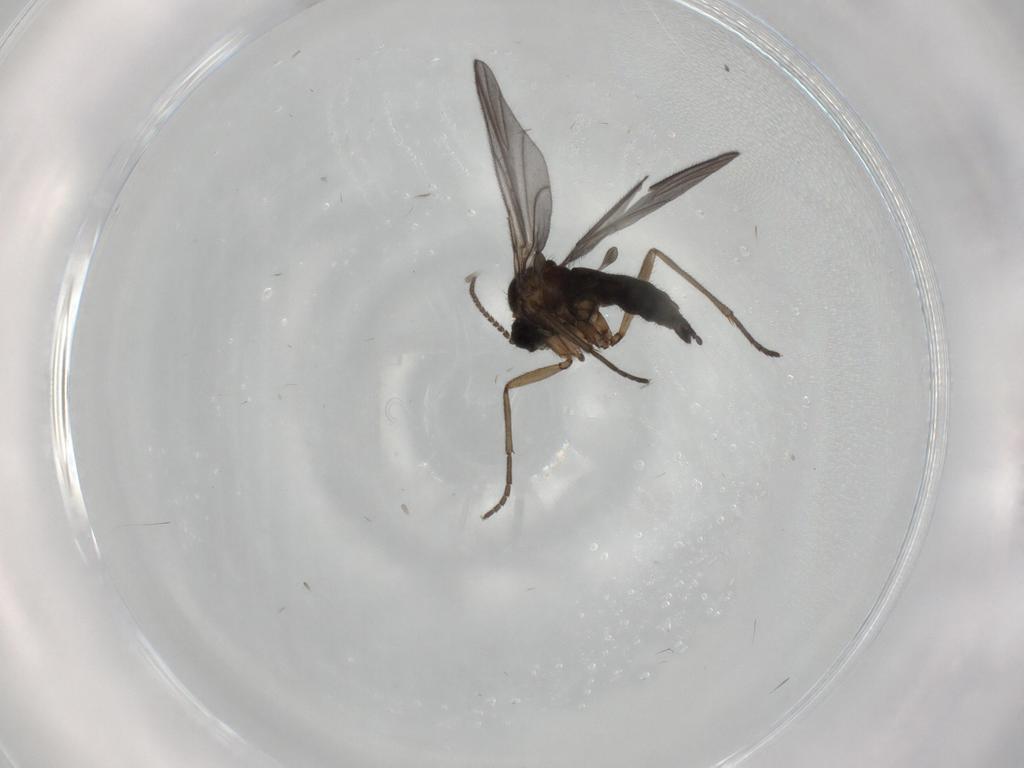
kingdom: Animalia
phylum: Arthropoda
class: Insecta
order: Diptera
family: Sciaridae
